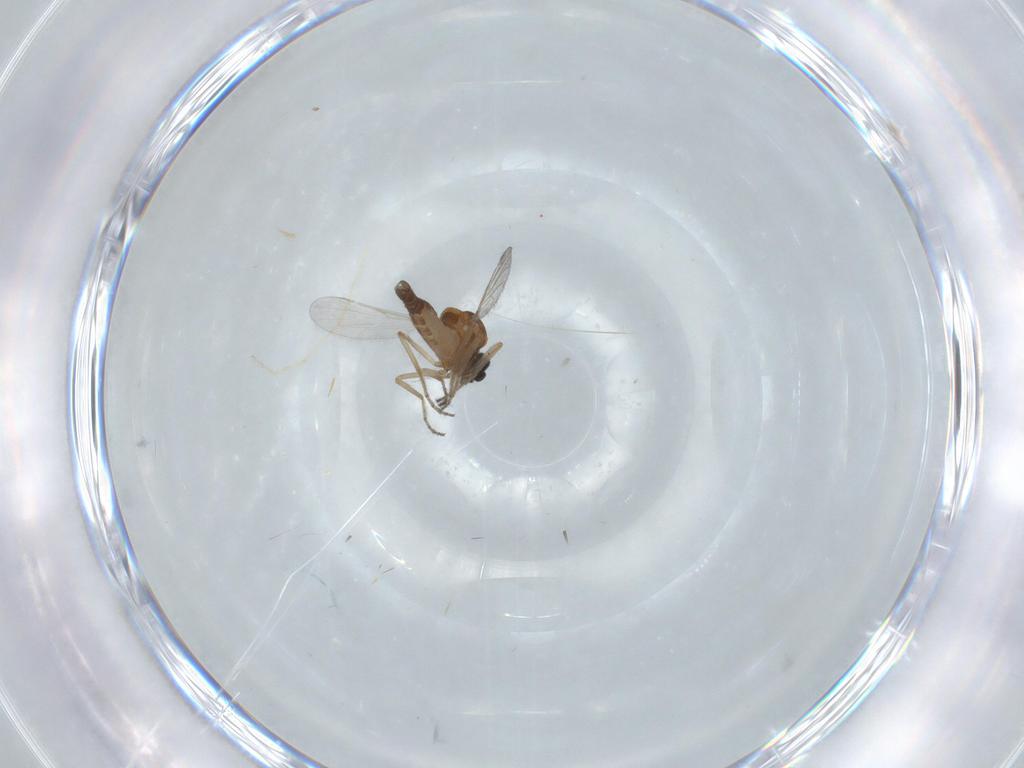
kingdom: Animalia
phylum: Arthropoda
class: Insecta
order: Diptera
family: Ceratopogonidae
